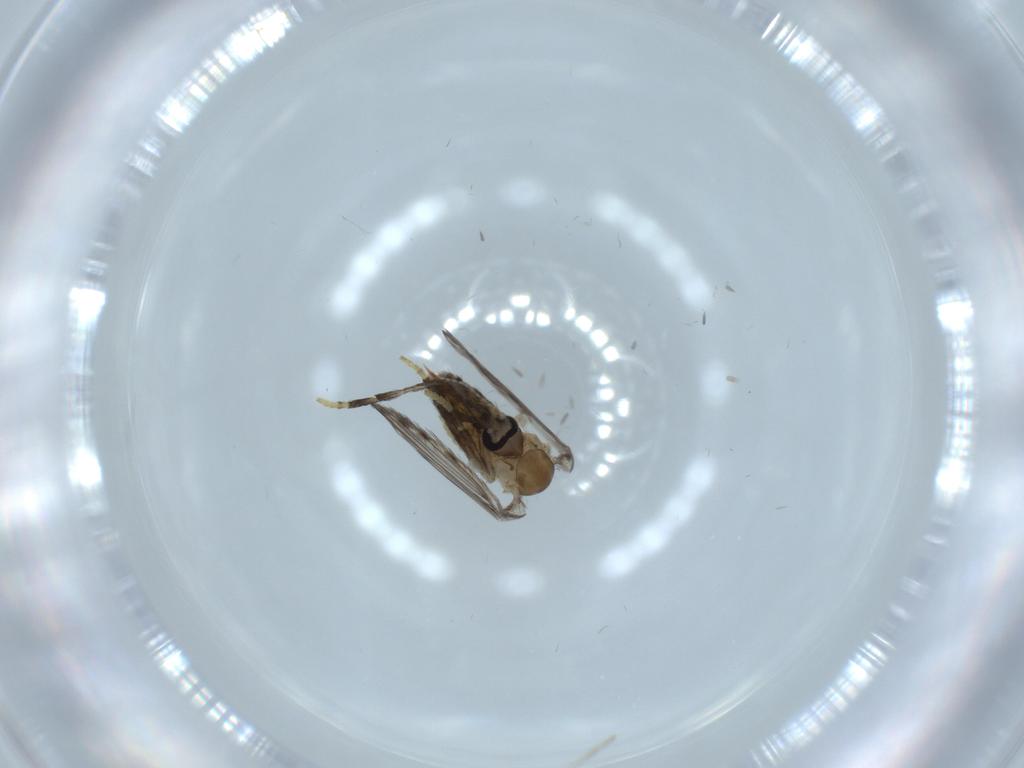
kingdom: Animalia
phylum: Arthropoda
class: Insecta
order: Diptera
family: Psychodidae
